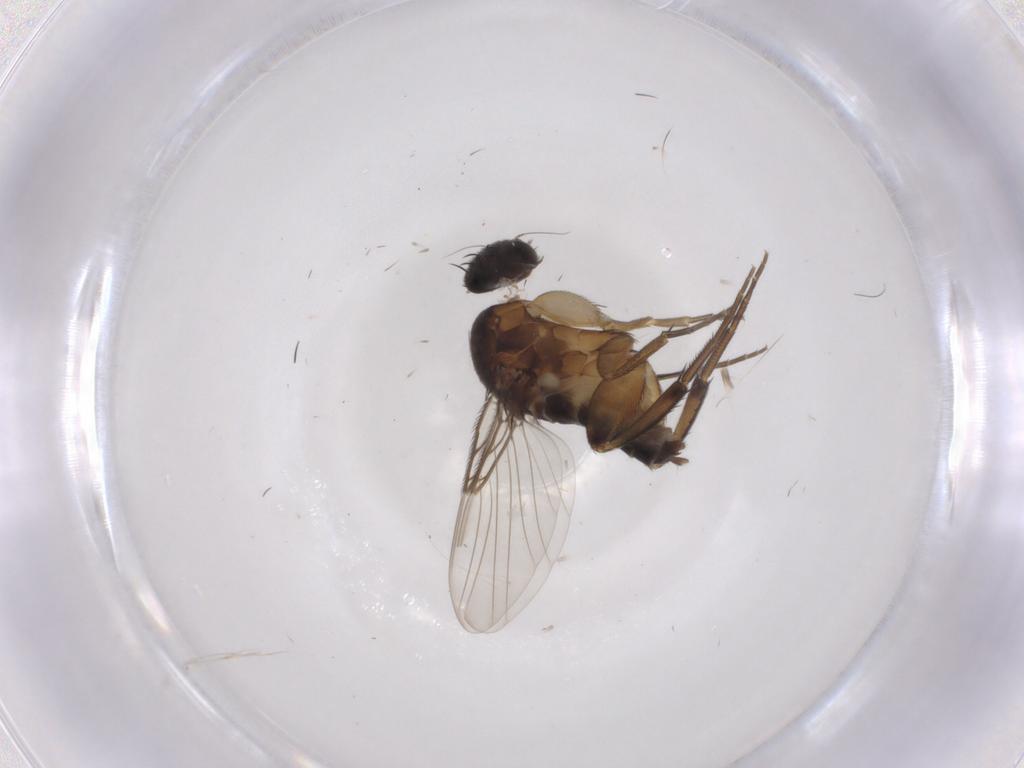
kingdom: Animalia
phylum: Arthropoda
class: Insecta
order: Diptera
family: Phoridae
